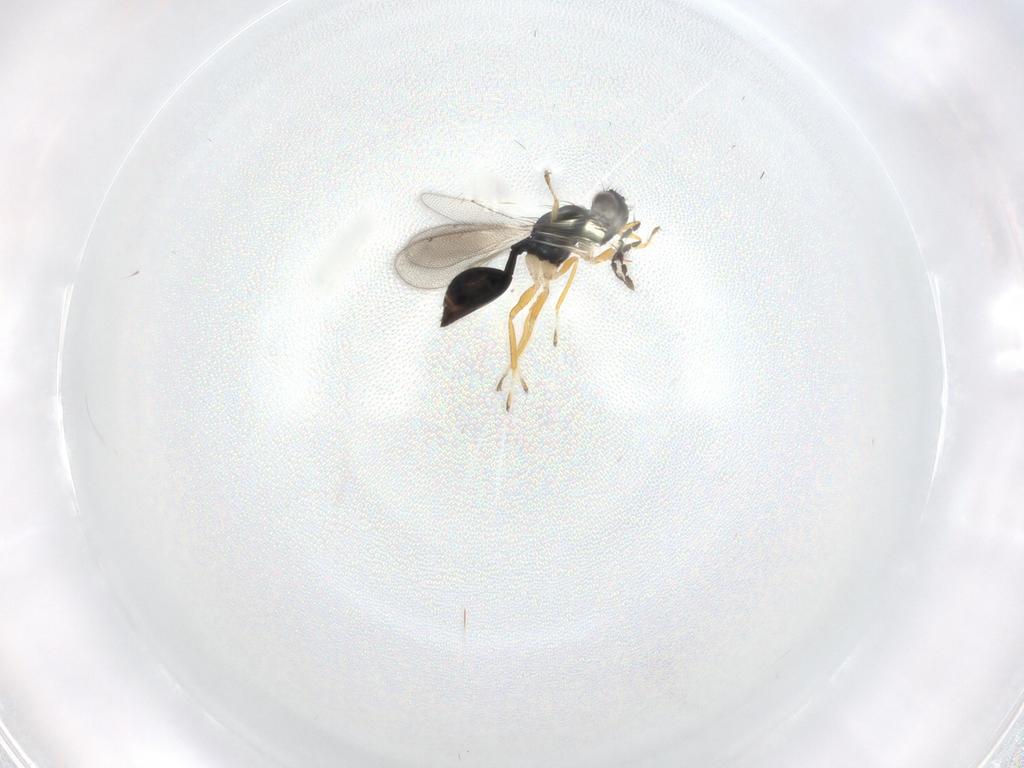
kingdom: Animalia
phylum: Arthropoda
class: Insecta
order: Hymenoptera
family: Eulophidae
